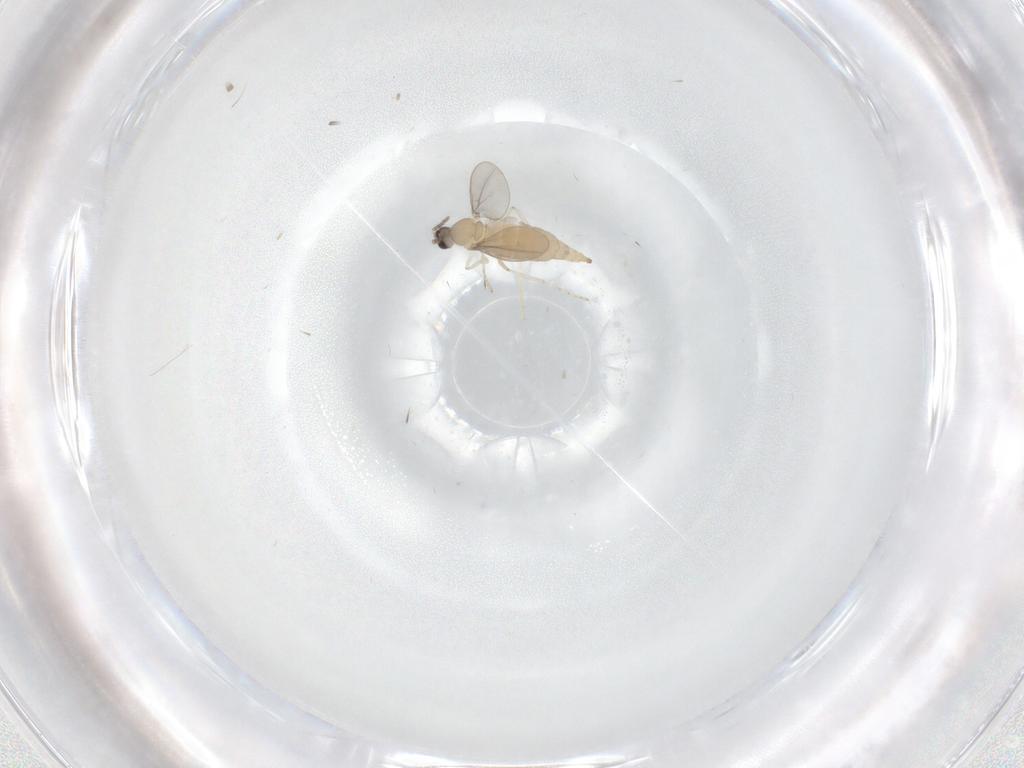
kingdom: Animalia
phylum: Arthropoda
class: Insecta
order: Diptera
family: Cecidomyiidae
